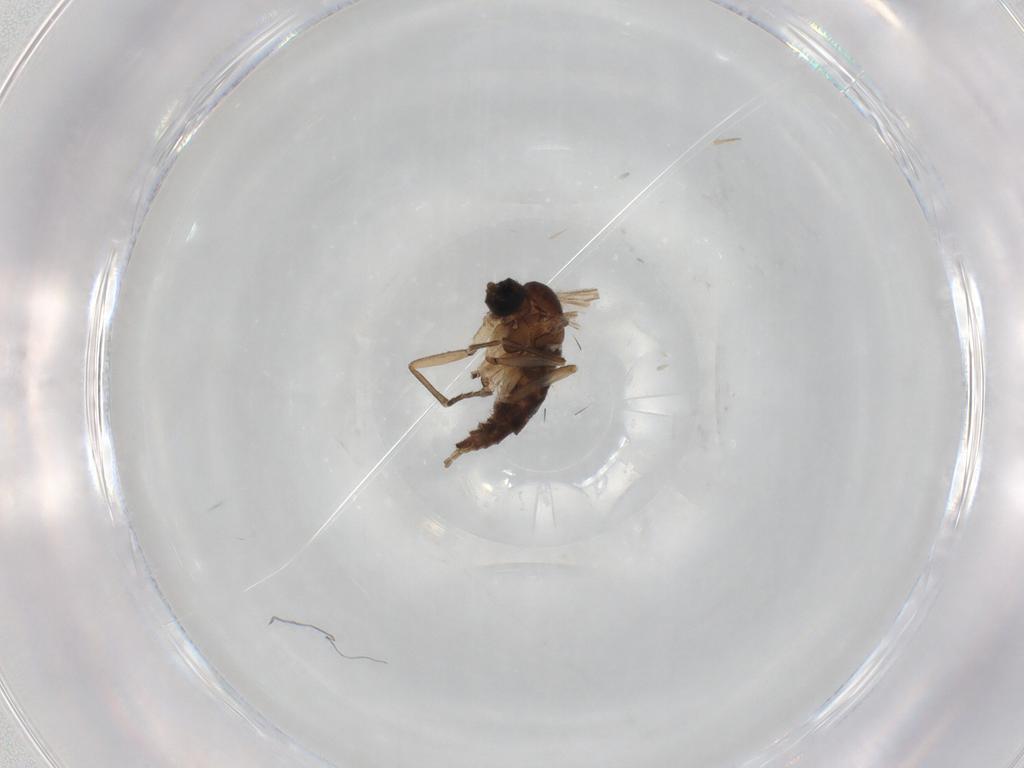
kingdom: Animalia
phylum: Arthropoda
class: Insecta
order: Diptera
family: Sciaridae
